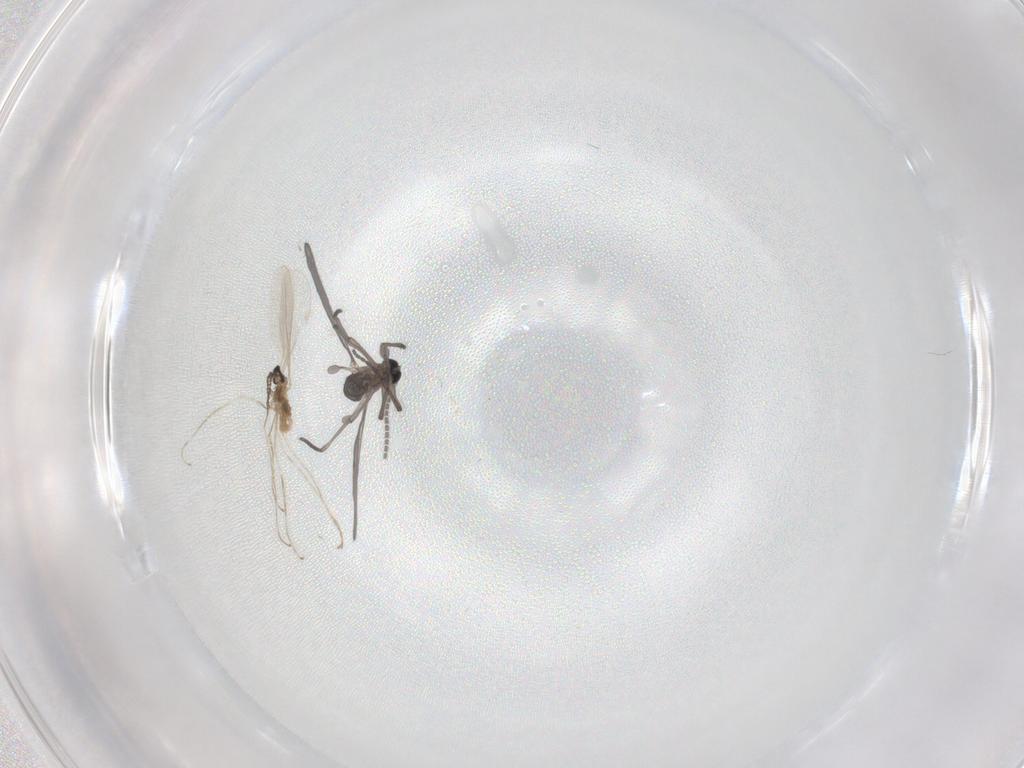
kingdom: Animalia
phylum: Arthropoda
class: Insecta
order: Diptera
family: Sciaridae
